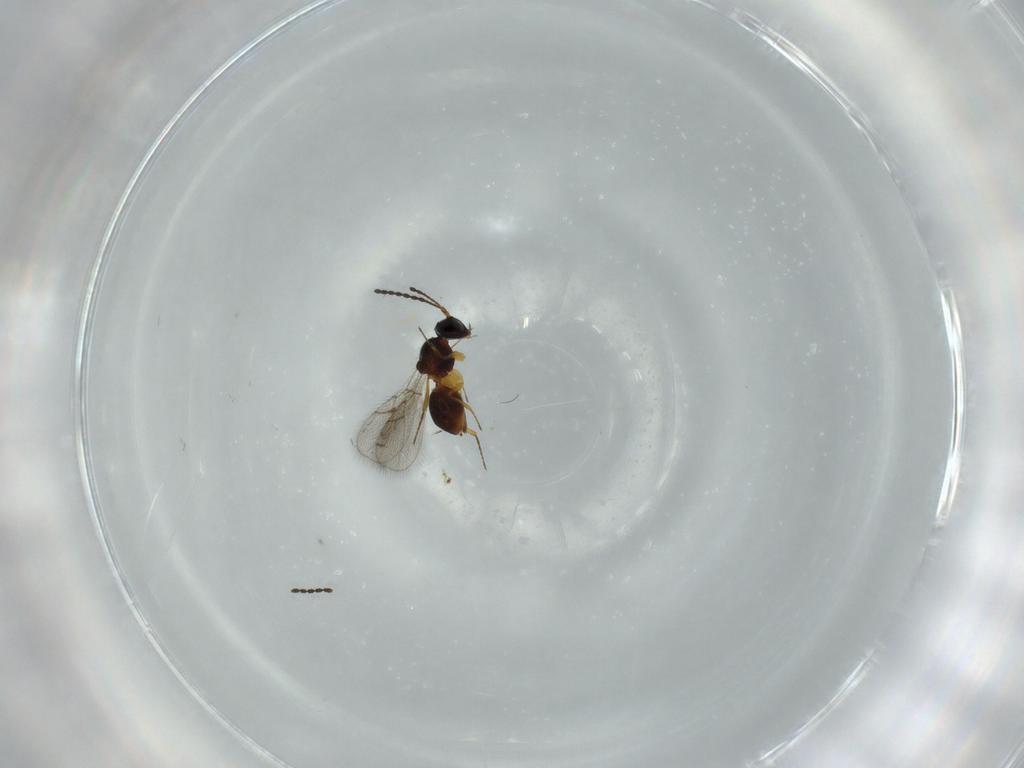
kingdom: Animalia
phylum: Arthropoda
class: Insecta
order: Hymenoptera
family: Figitidae
